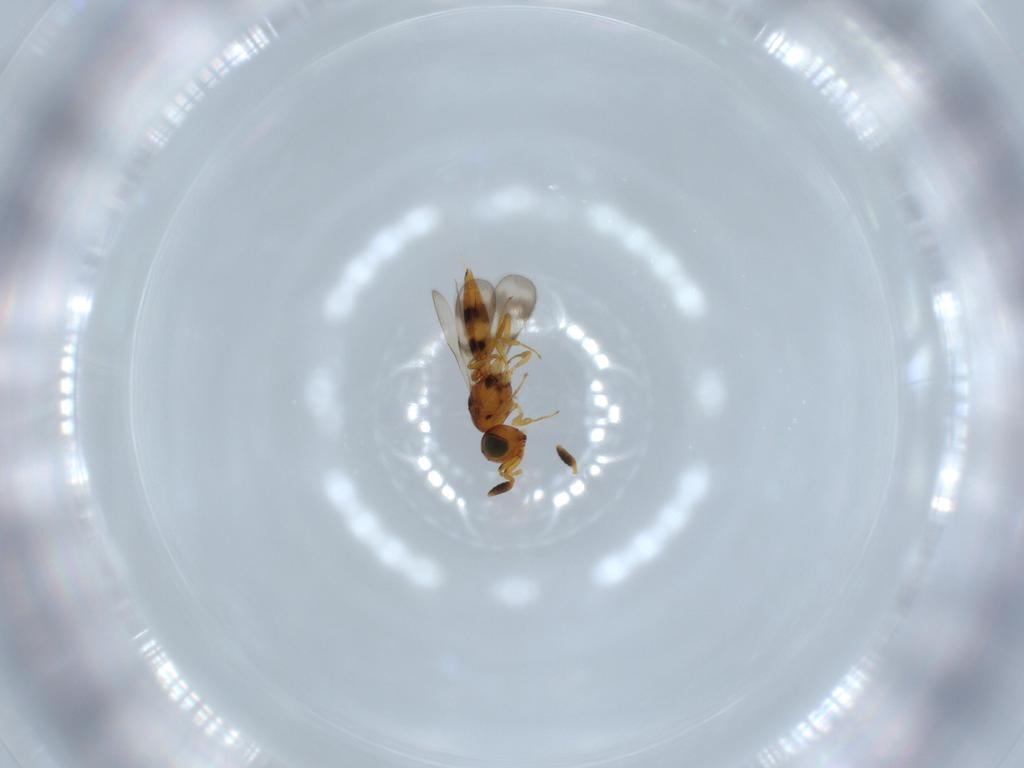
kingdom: Animalia
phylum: Arthropoda
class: Insecta
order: Hymenoptera
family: Scelionidae
